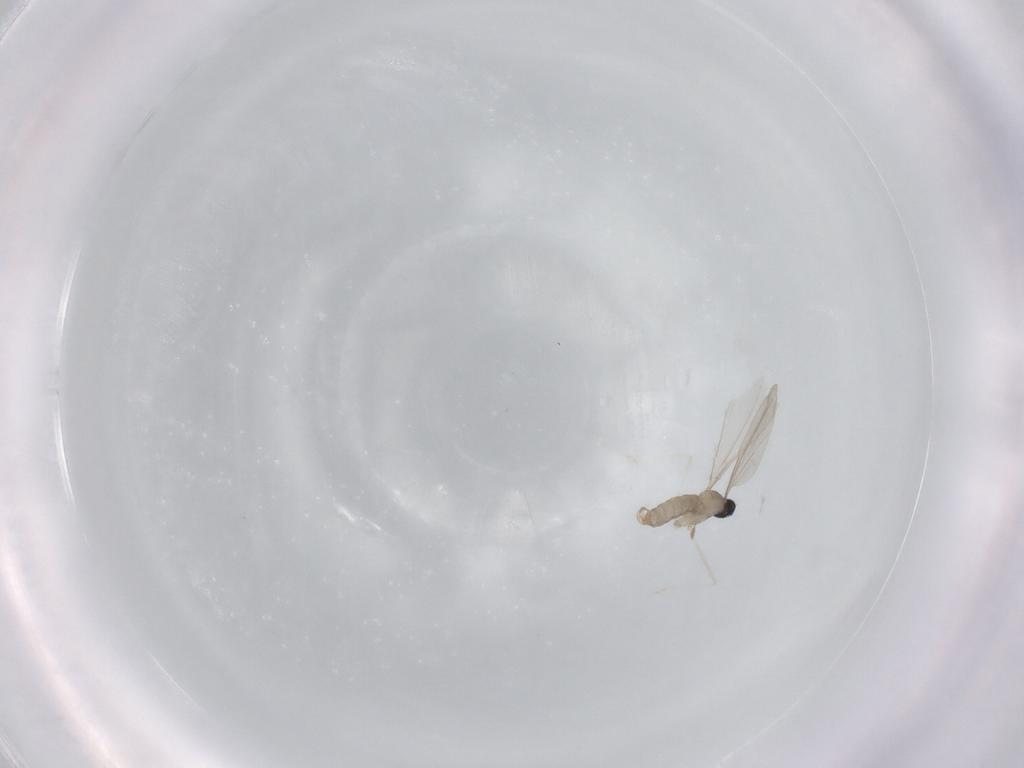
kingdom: Animalia
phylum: Arthropoda
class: Insecta
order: Diptera
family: Cecidomyiidae
